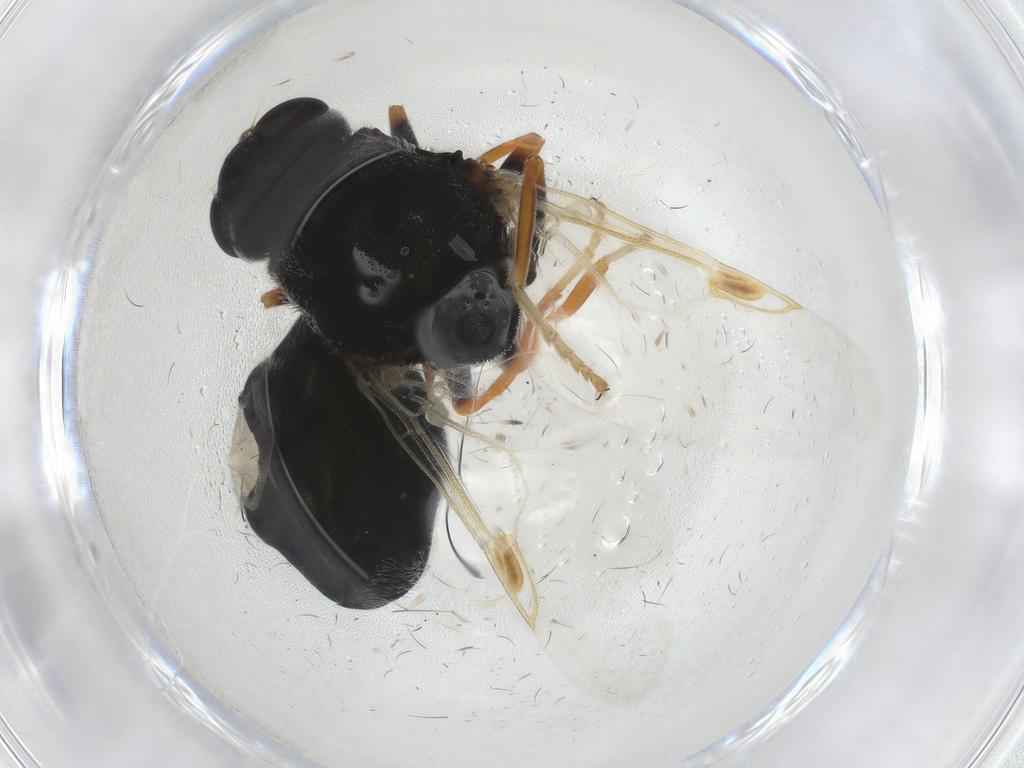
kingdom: Animalia
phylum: Arthropoda
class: Insecta
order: Diptera
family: Stratiomyidae
